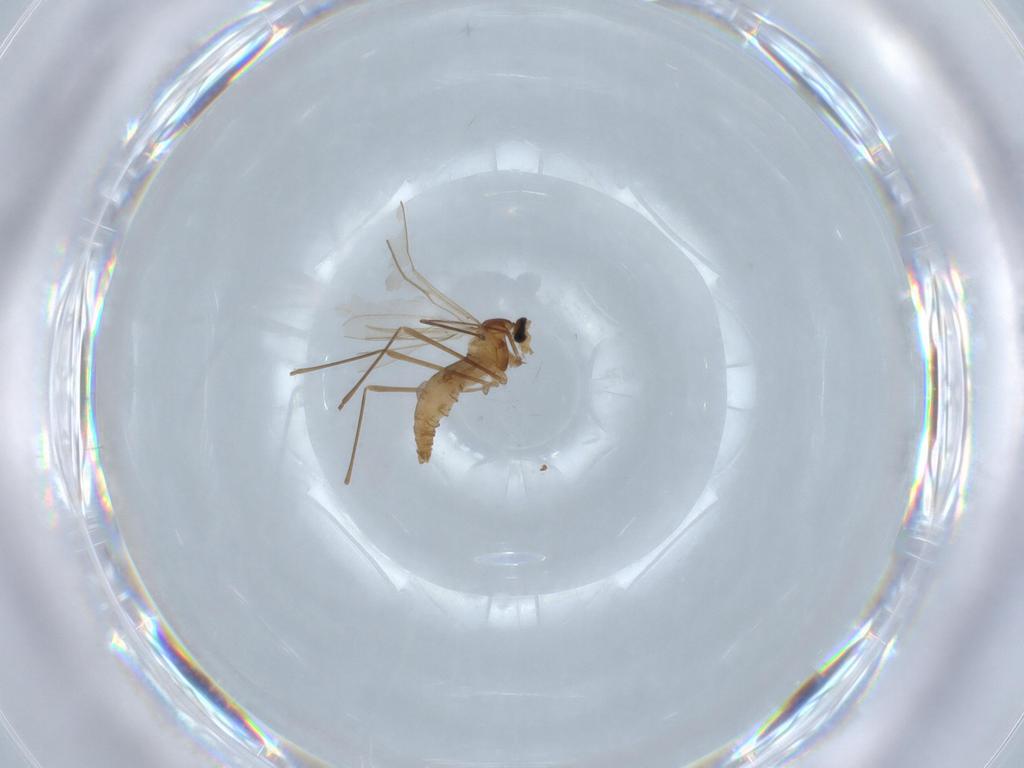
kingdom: Animalia
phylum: Arthropoda
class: Insecta
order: Diptera
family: Cecidomyiidae
